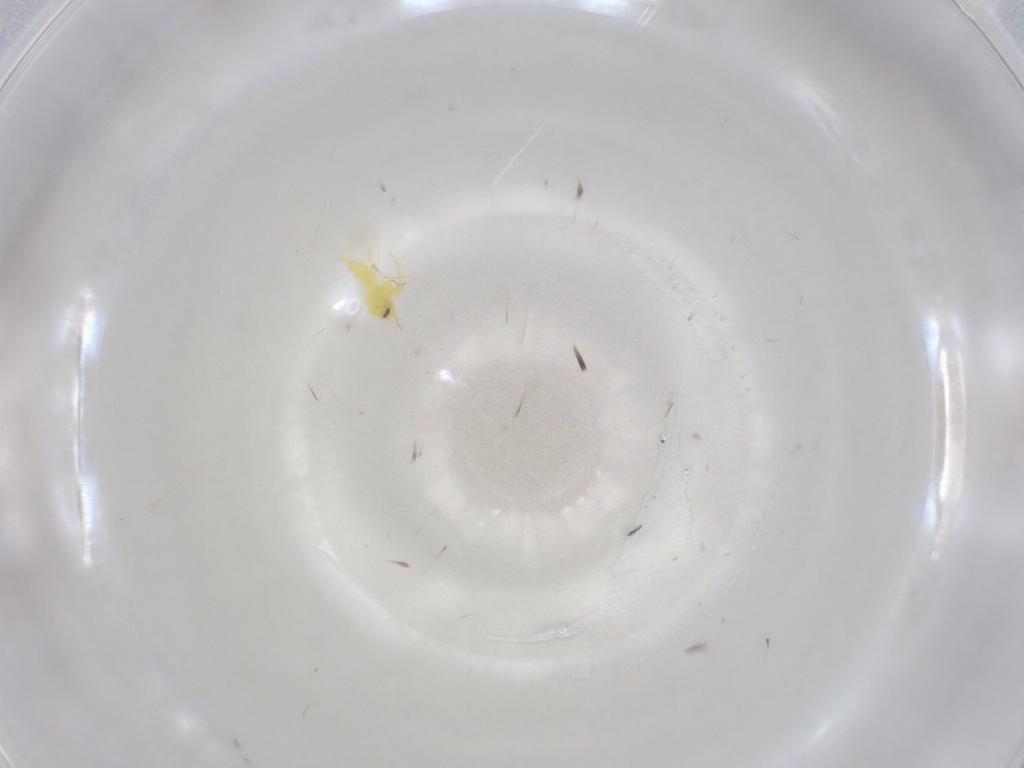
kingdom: Animalia
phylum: Arthropoda
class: Insecta
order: Hemiptera
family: Aleyrodidae
